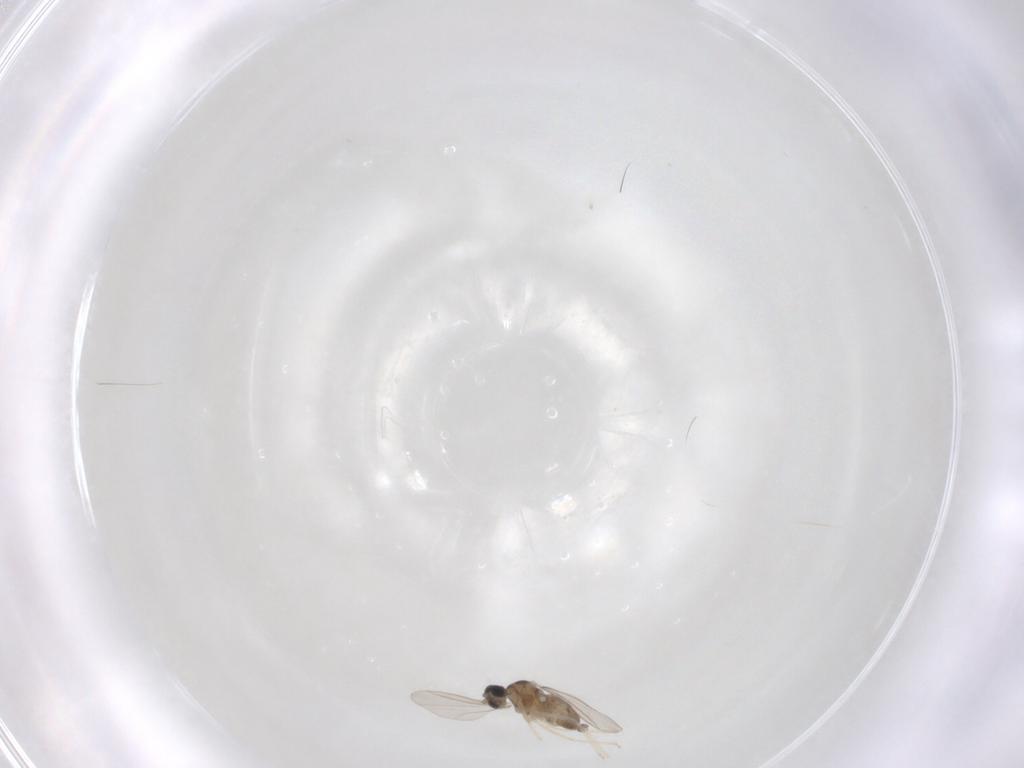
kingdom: Animalia
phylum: Arthropoda
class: Insecta
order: Diptera
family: Cecidomyiidae
